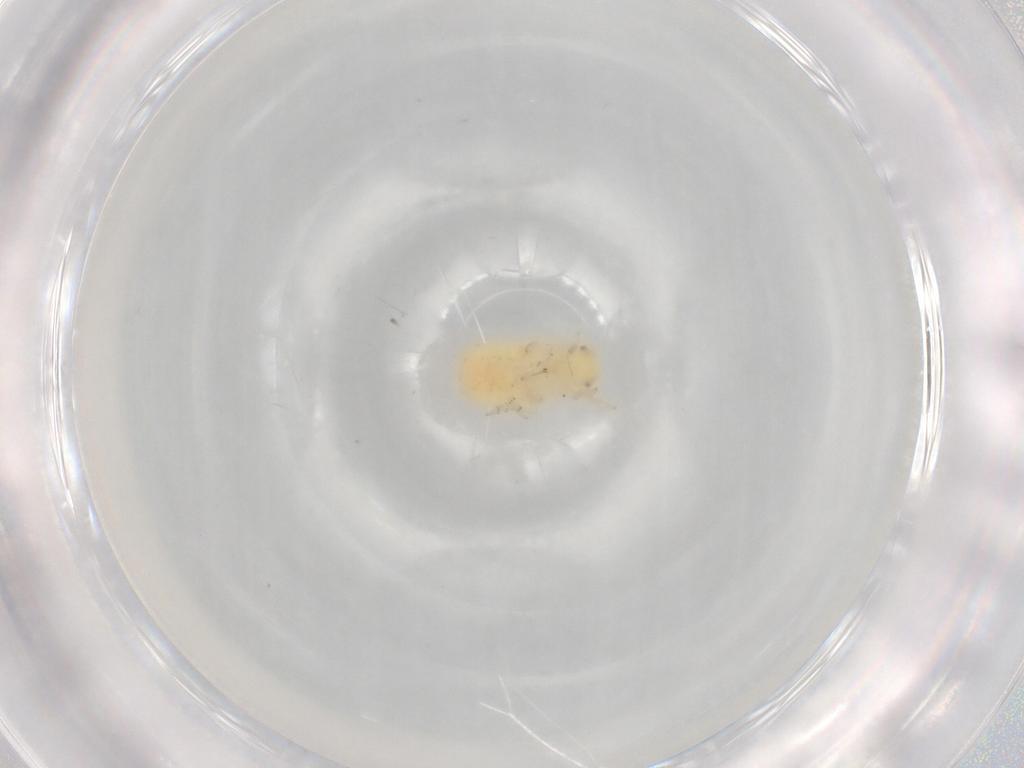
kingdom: Animalia
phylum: Arthropoda
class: Insecta
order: Hemiptera
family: Flatidae
